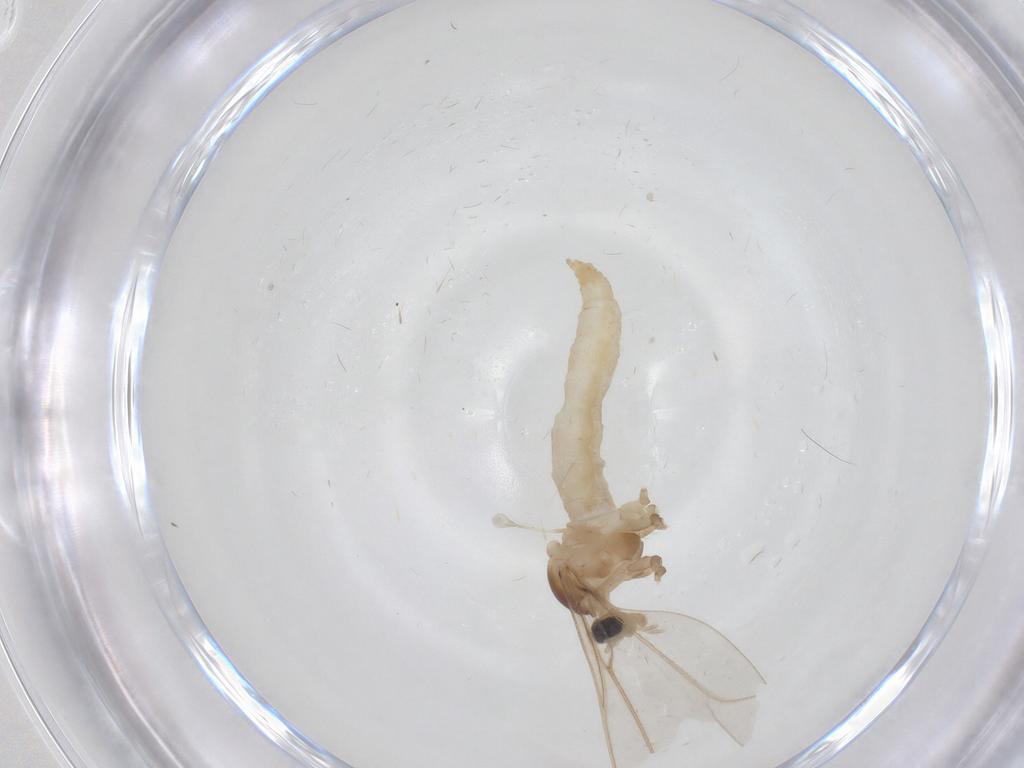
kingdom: Animalia
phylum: Arthropoda
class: Insecta
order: Diptera
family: Cecidomyiidae
